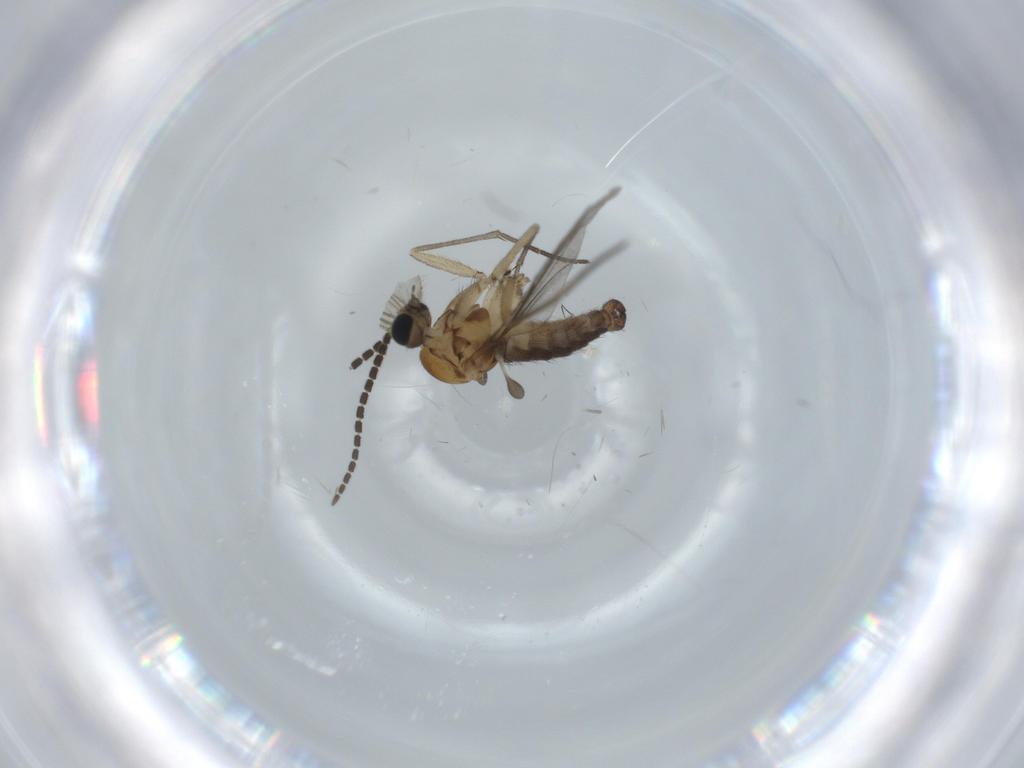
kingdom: Animalia
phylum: Arthropoda
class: Insecta
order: Diptera
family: Sciaridae
